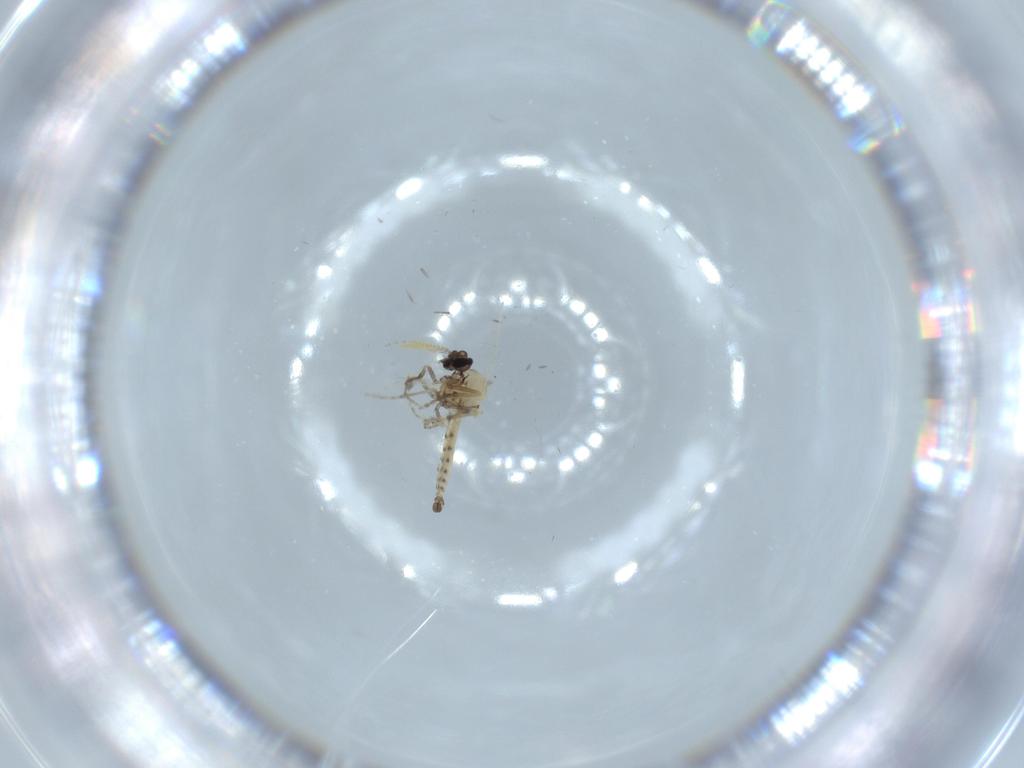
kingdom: Animalia
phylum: Arthropoda
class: Insecta
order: Diptera
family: Ceratopogonidae
